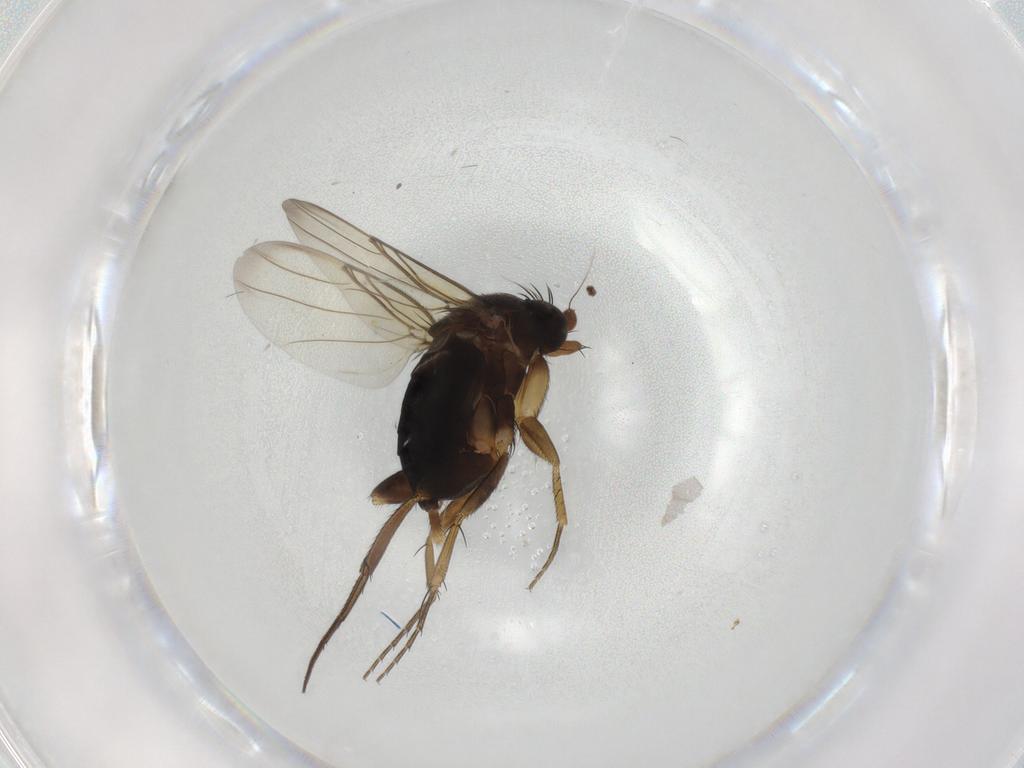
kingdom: Animalia
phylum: Arthropoda
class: Insecta
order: Diptera
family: Phoridae
